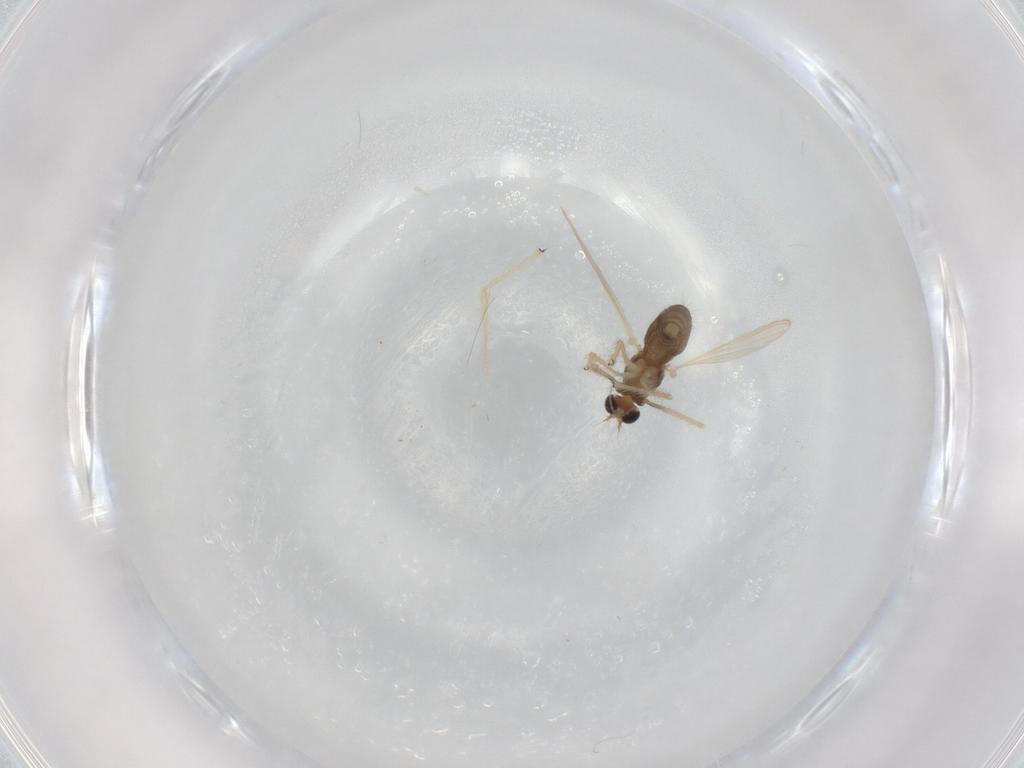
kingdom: Animalia
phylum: Arthropoda
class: Insecta
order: Diptera
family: Chironomidae
